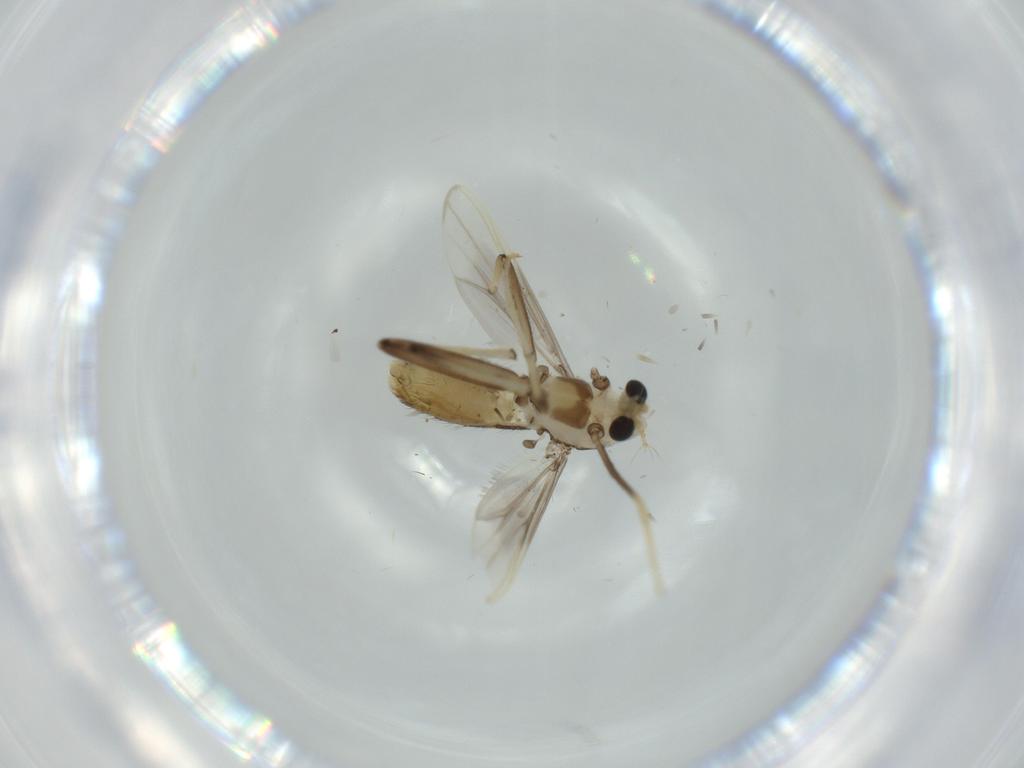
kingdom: Animalia
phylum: Arthropoda
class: Insecta
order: Diptera
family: Chironomidae
